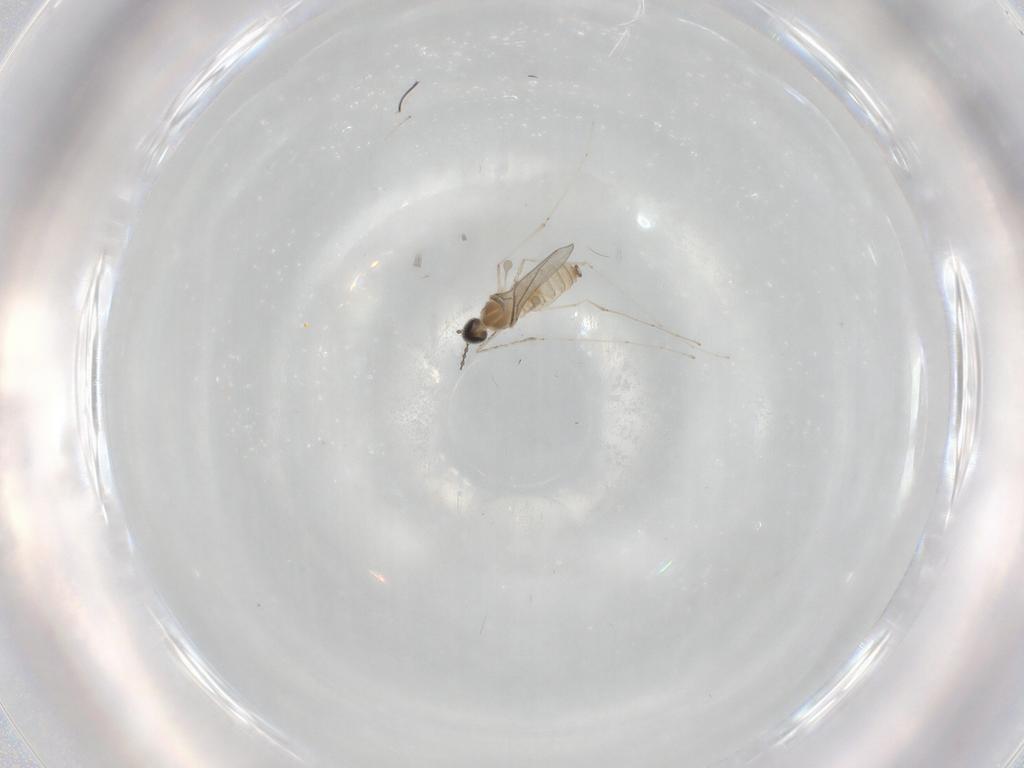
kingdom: Animalia
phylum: Arthropoda
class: Insecta
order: Diptera
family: Cecidomyiidae
